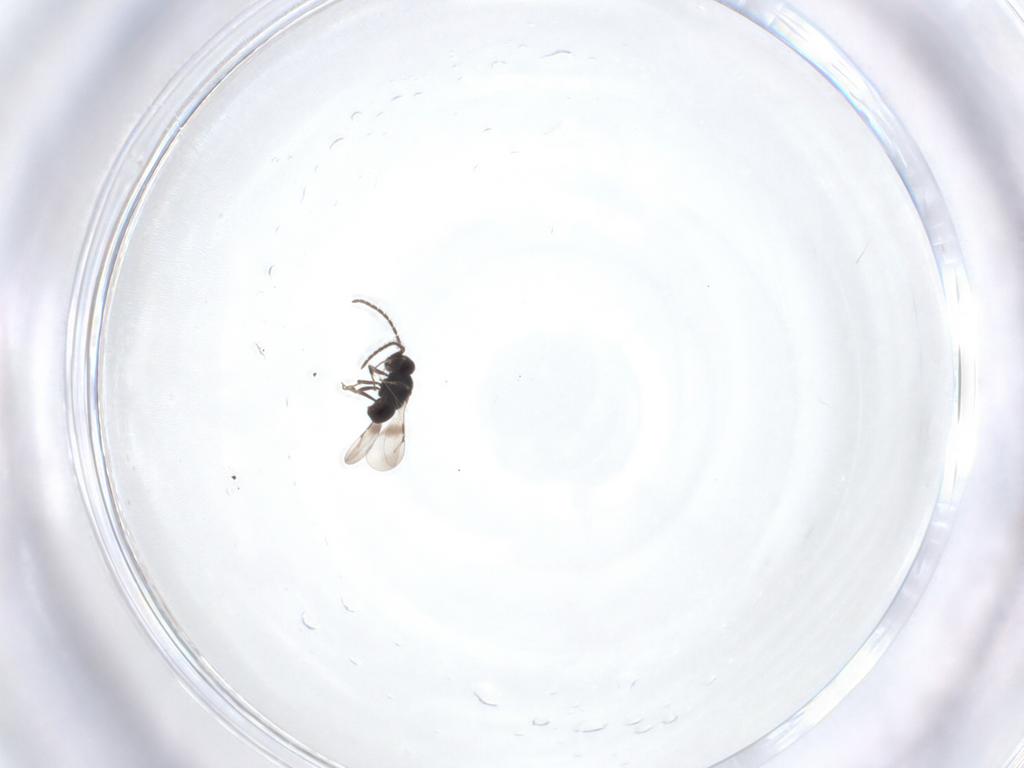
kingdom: Animalia
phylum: Arthropoda
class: Insecta
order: Hymenoptera
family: Ceraphronidae
